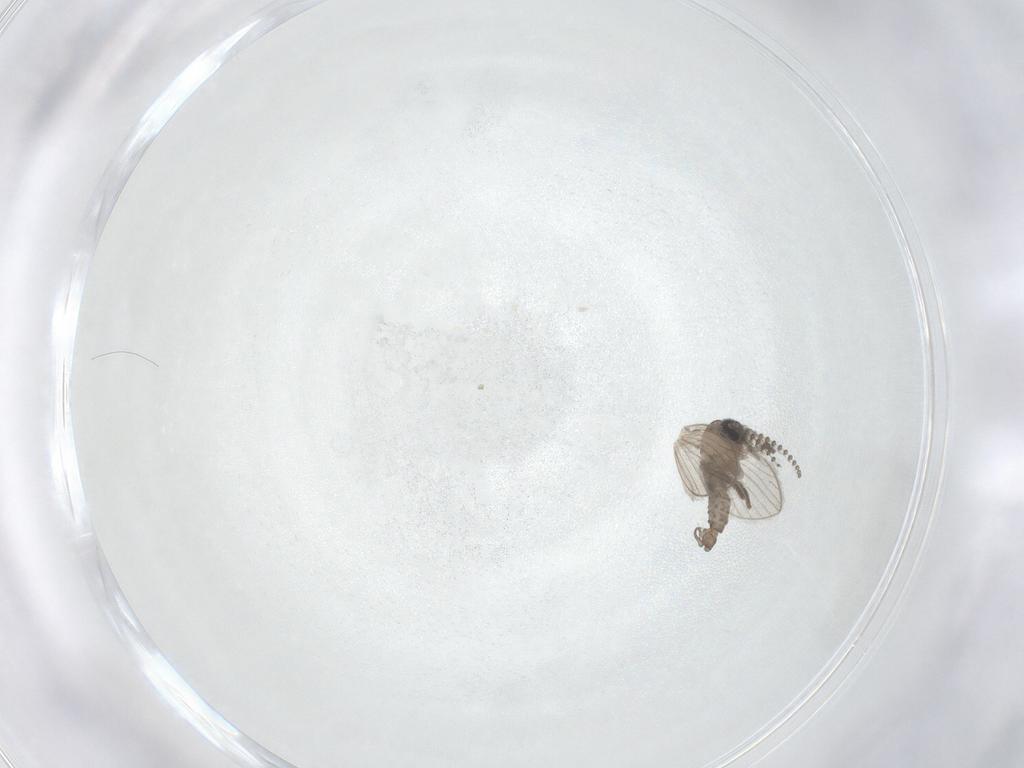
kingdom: Animalia
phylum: Arthropoda
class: Insecta
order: Diptera
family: Psychodidae
